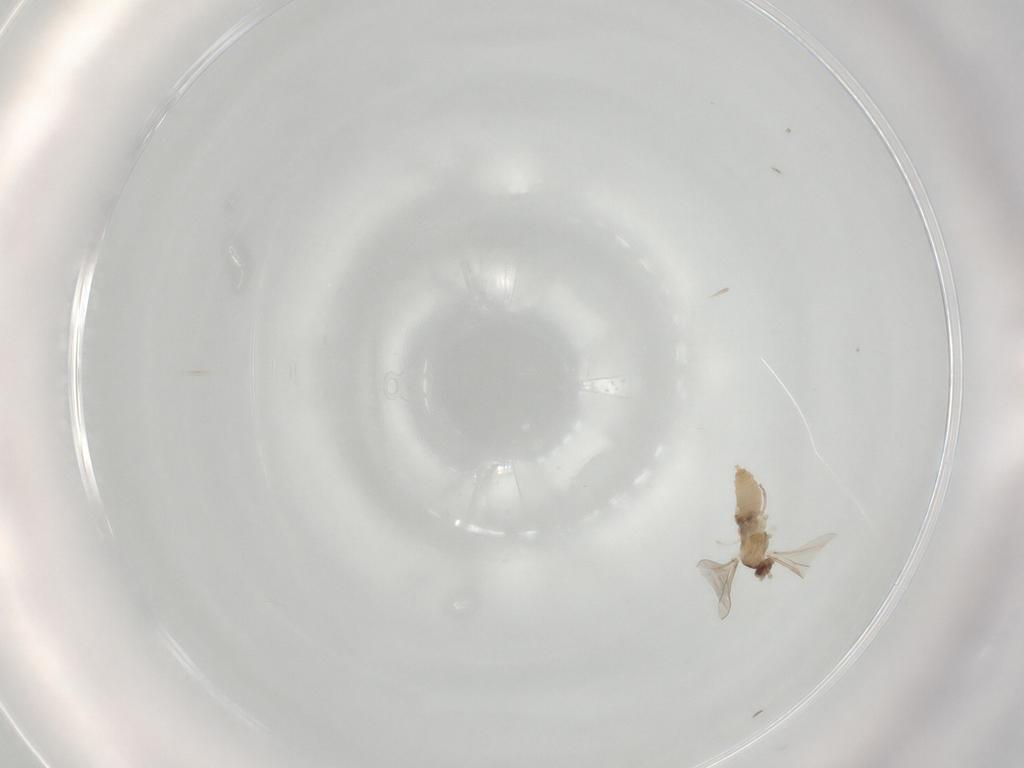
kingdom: Animalia
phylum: Arthropoda
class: Insecta
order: Diptera
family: Cecidomyiidae
